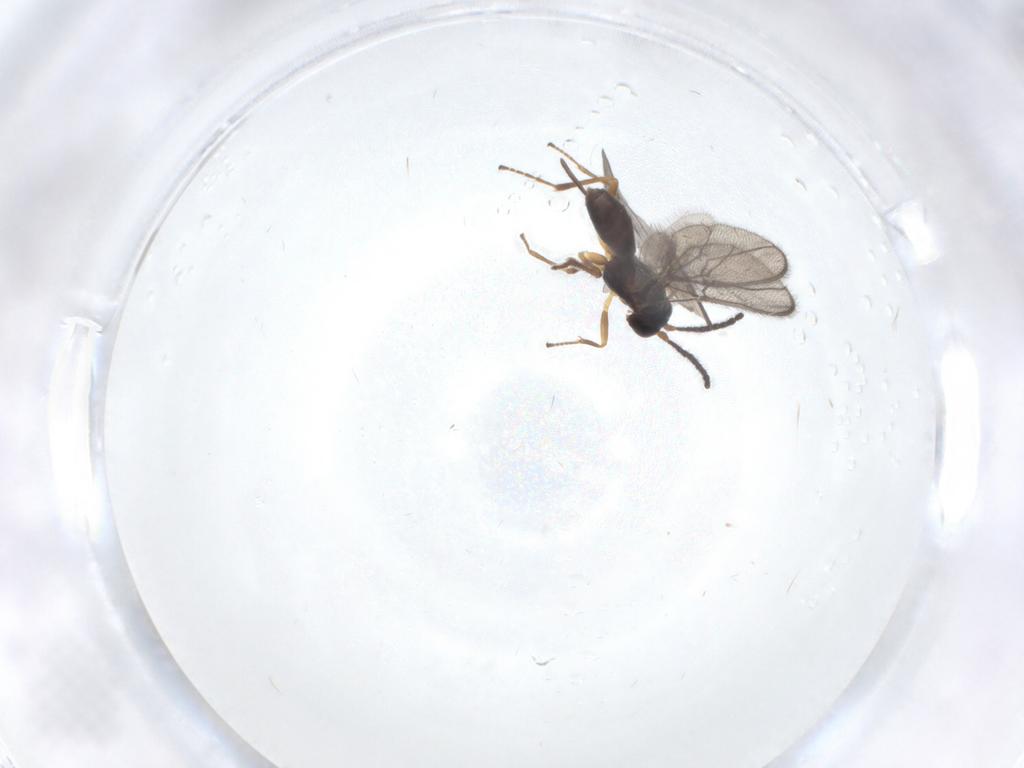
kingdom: Animalia
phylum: Arthropoda
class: Insecta
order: Hymenoptera
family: Braconidae
